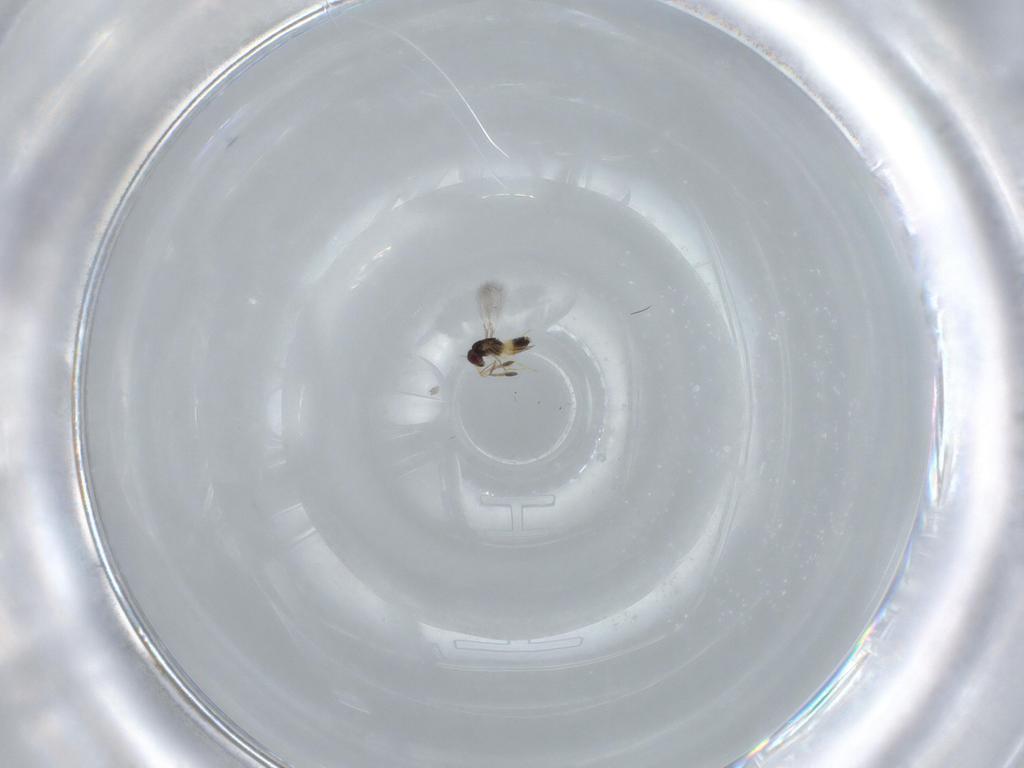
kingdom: Animalia
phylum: Arthropoda
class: Insecta
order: Hymenoptera
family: Mymaridae
